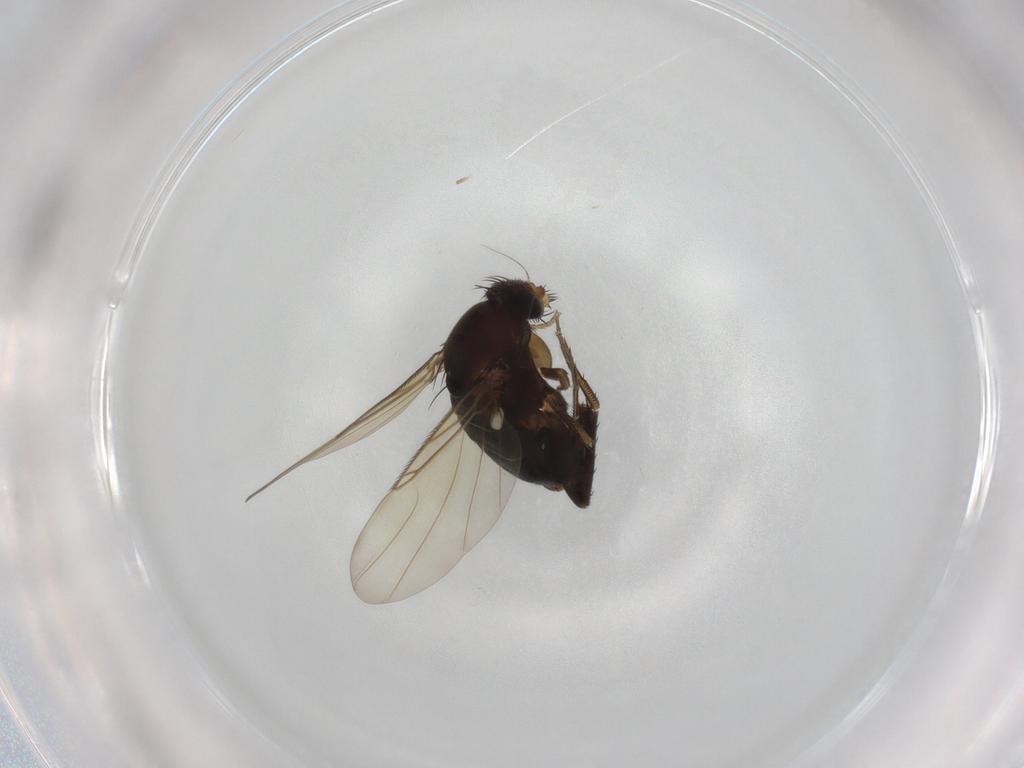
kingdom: Animalia
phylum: Arthropoda
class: Insecta
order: Diptera
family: Phoridae
